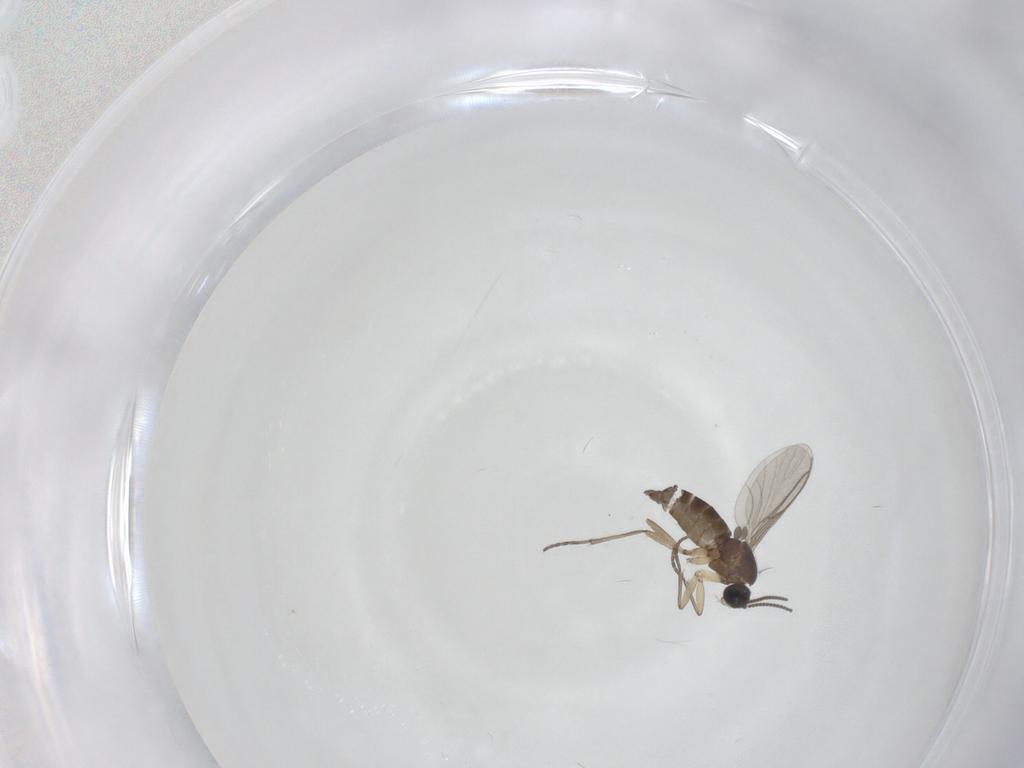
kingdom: Animalia
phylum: Arthropoda
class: Insecta
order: Diptera
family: Sciaridae
